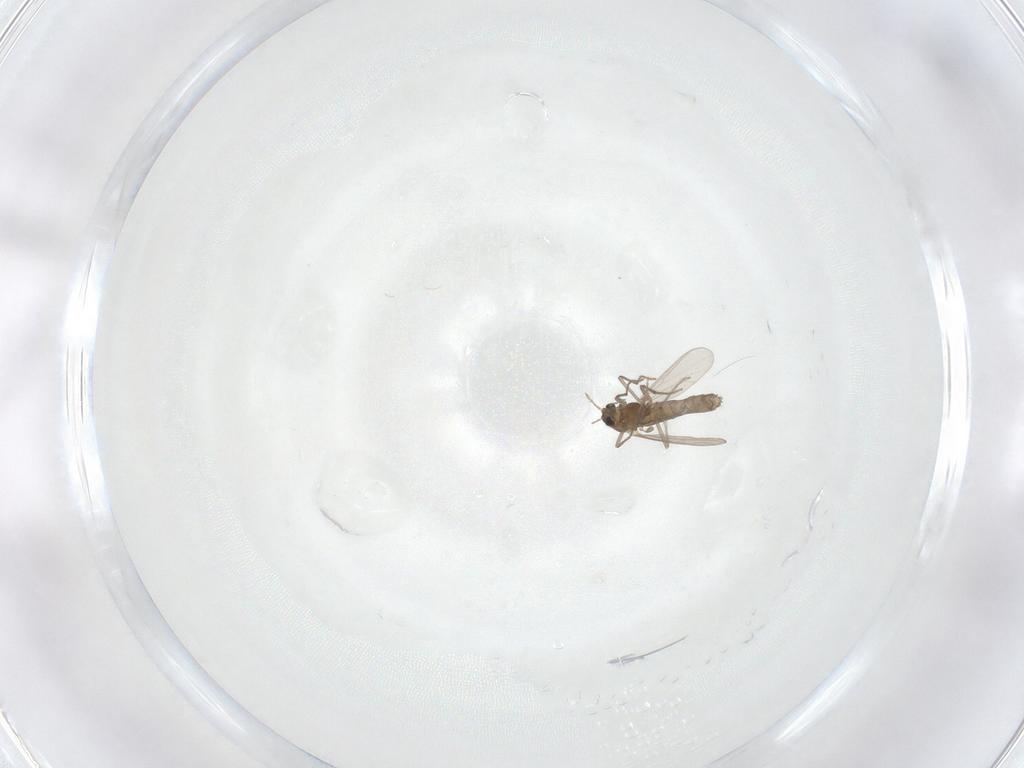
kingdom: Animalia
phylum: Arthropoda
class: Insecta
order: Diptera
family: Chironomidae
